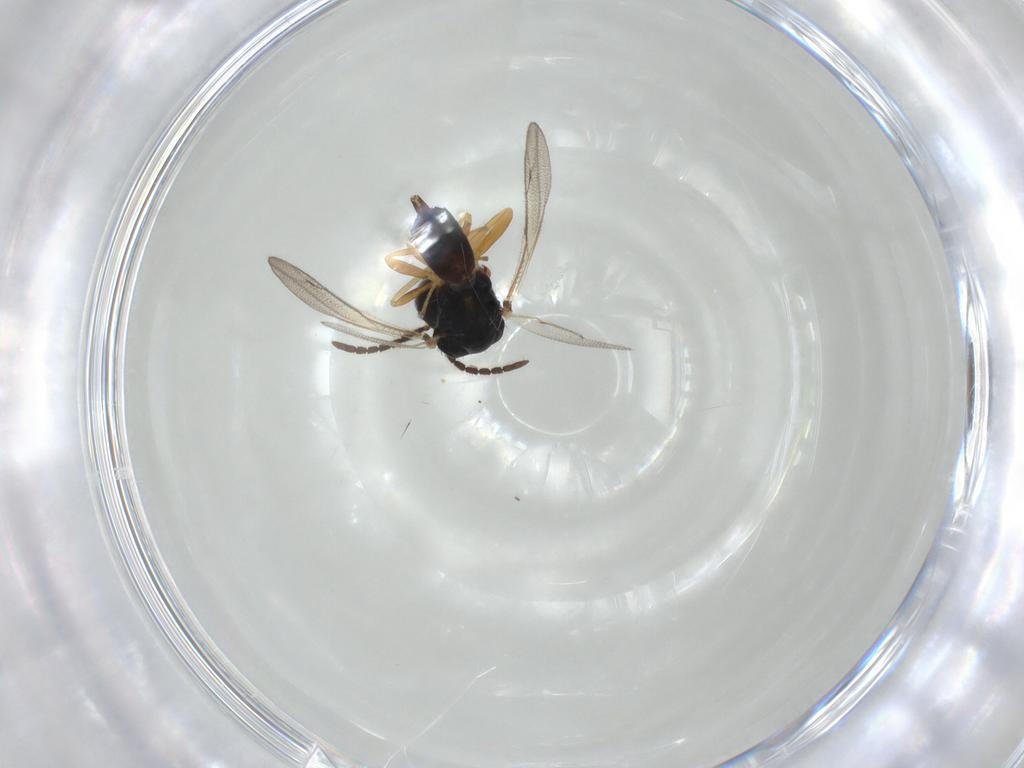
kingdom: Animalia
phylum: Arthropoda
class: Insecta
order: Hymenoptera
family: Pteromalidae
